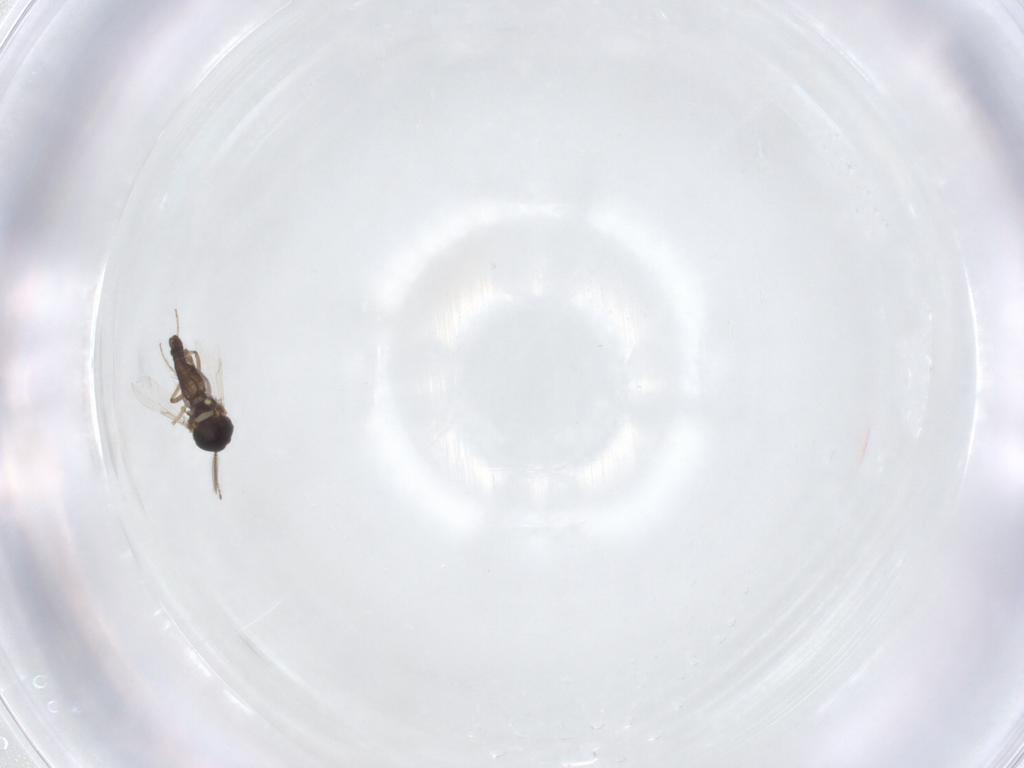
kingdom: Animalia
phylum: Arthropoda
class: Insecta
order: Diptera
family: Ceratopogonidae
